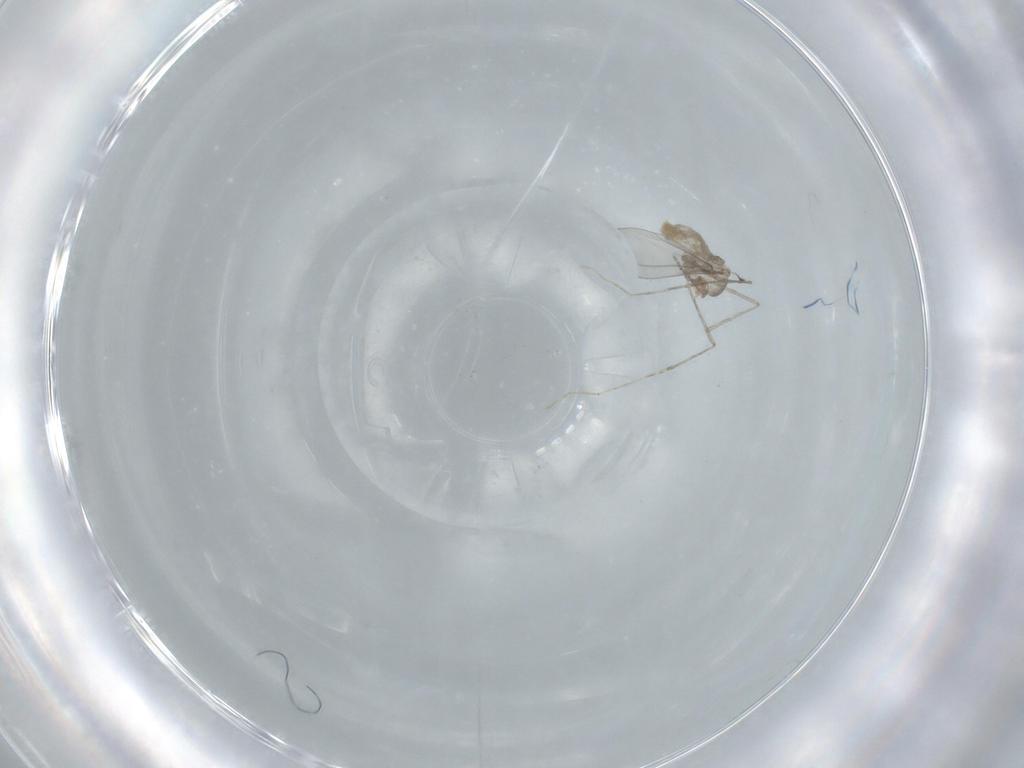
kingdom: Animalia
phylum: Arthropoda
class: Insecta
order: Diptera
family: Cecidomyiidae
